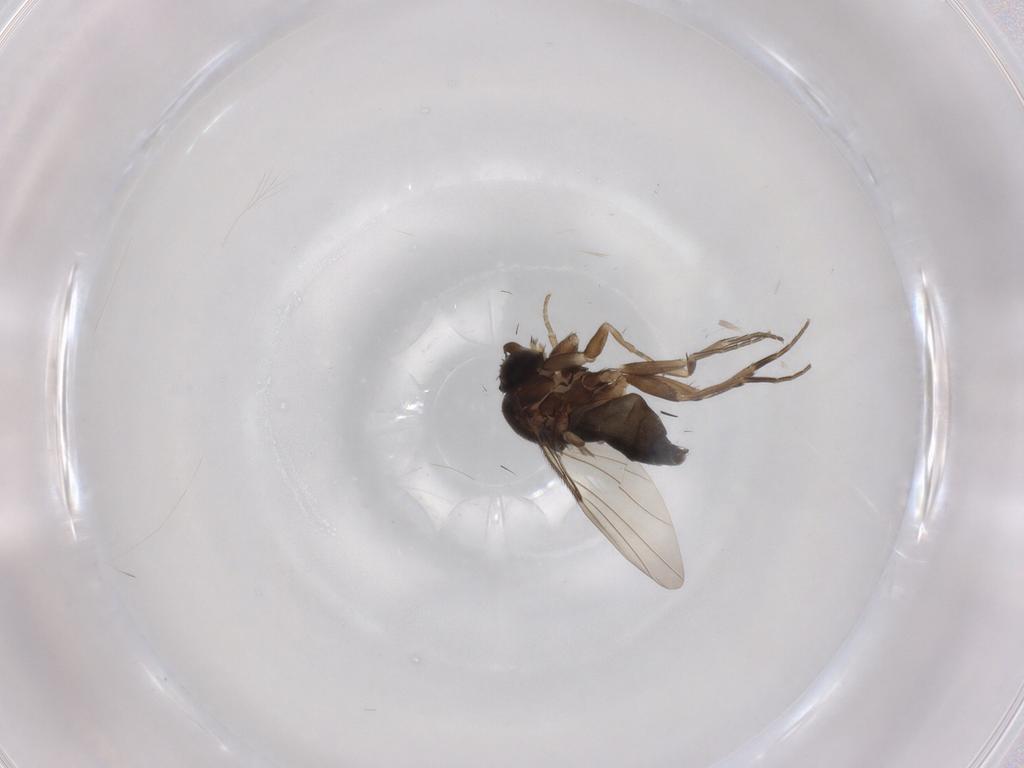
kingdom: Animalia
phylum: Arthropoda
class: Insecta
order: Diptera
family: Phoridae
